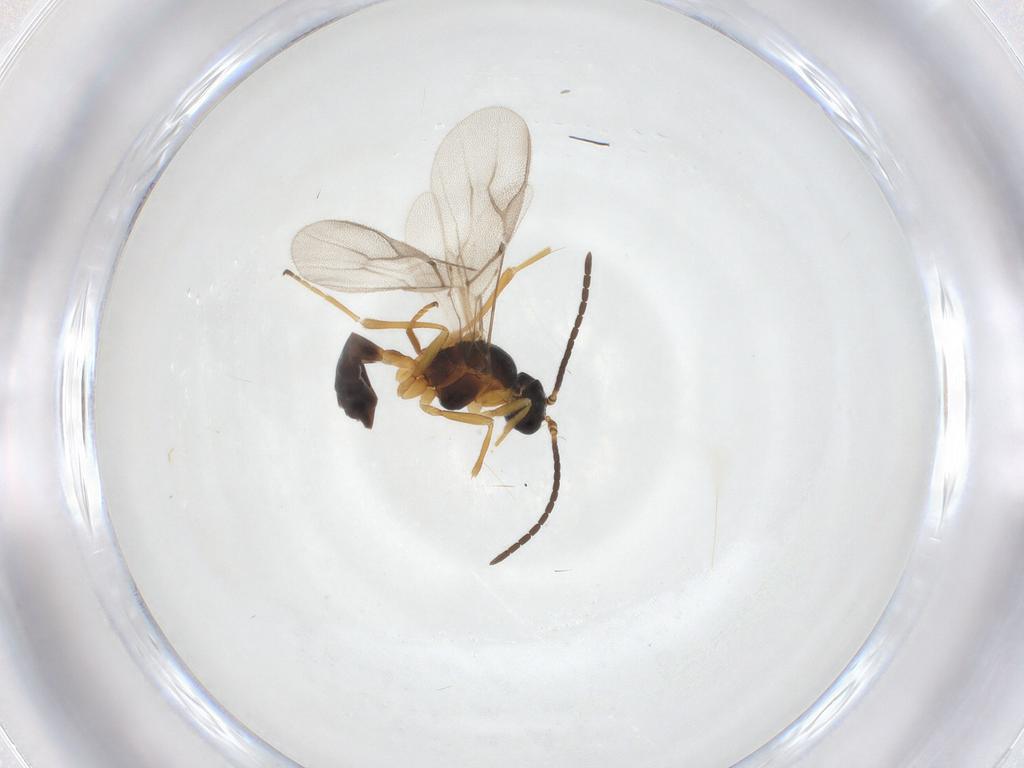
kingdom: Animalia
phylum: Arthropoda
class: Insecta
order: Hymenoptera
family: Braconidae
